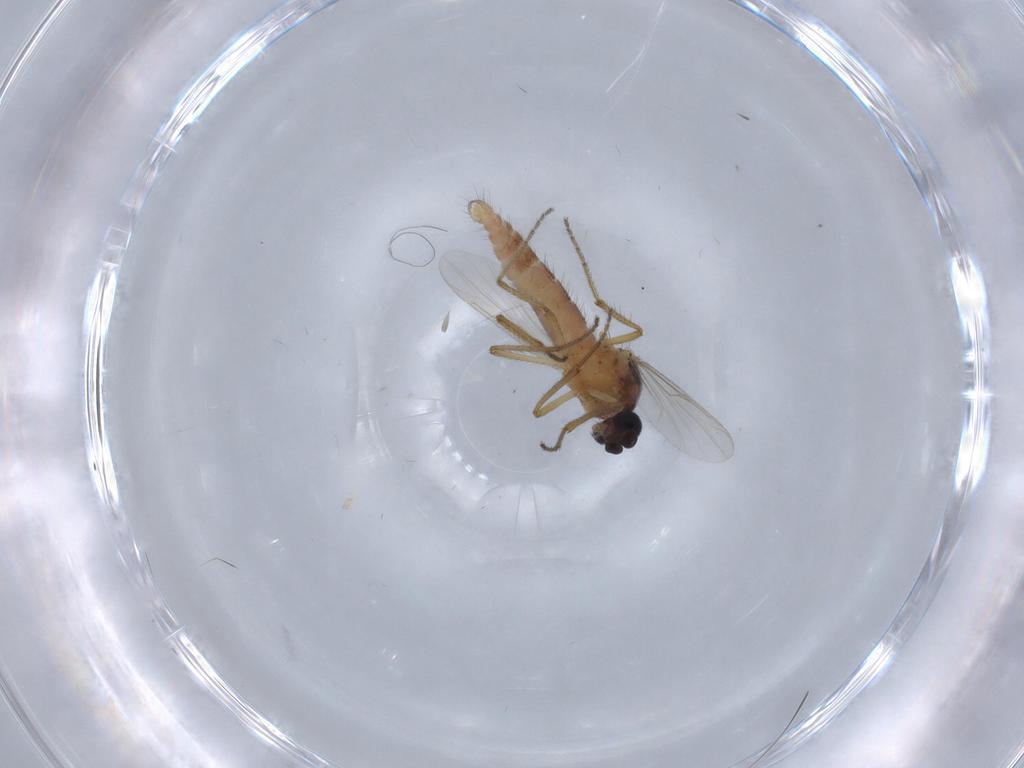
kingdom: Animalia
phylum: Arthropoda
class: Insecta
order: Diptera
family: Ceratopogonidae
